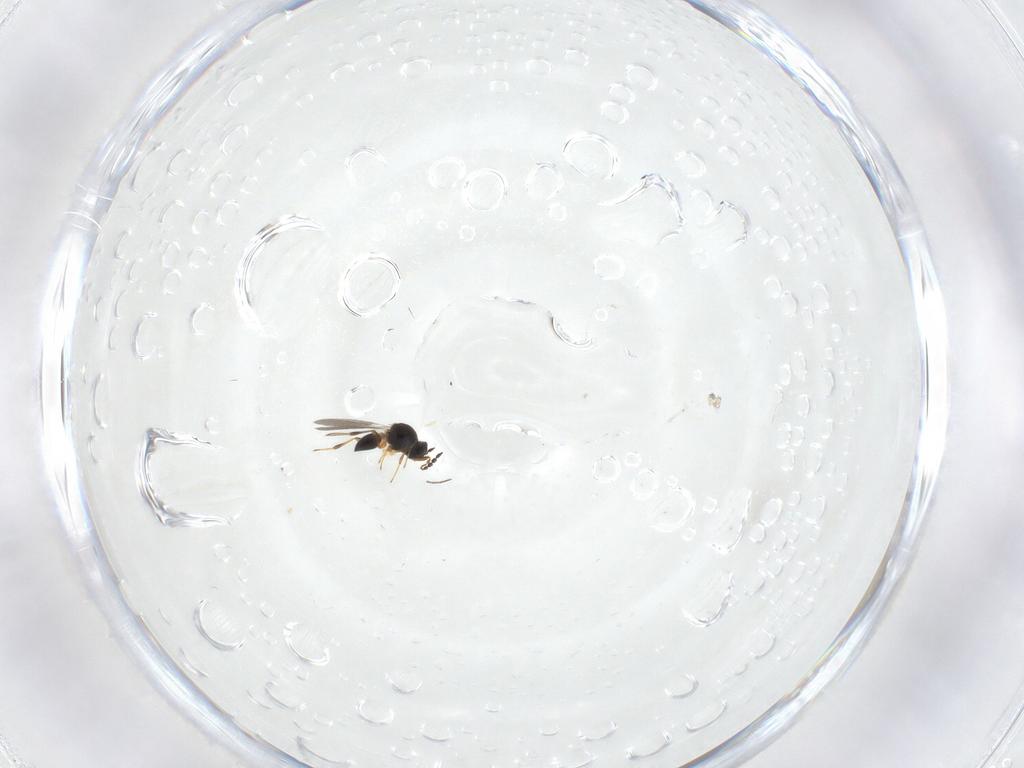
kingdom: Animalia
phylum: Arthropoda
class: Insecta
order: Hymenoptera
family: Platygastridae
